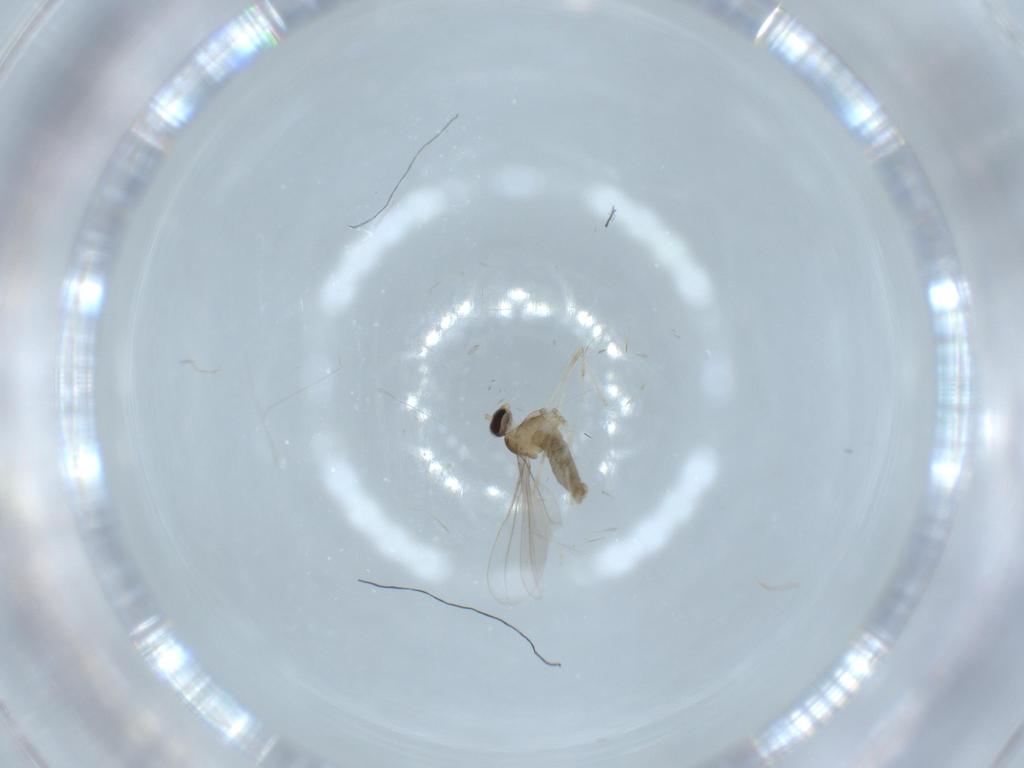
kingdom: Animalia
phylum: Arthropoda
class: Insecta
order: Diptera
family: Cecidomyiidae
